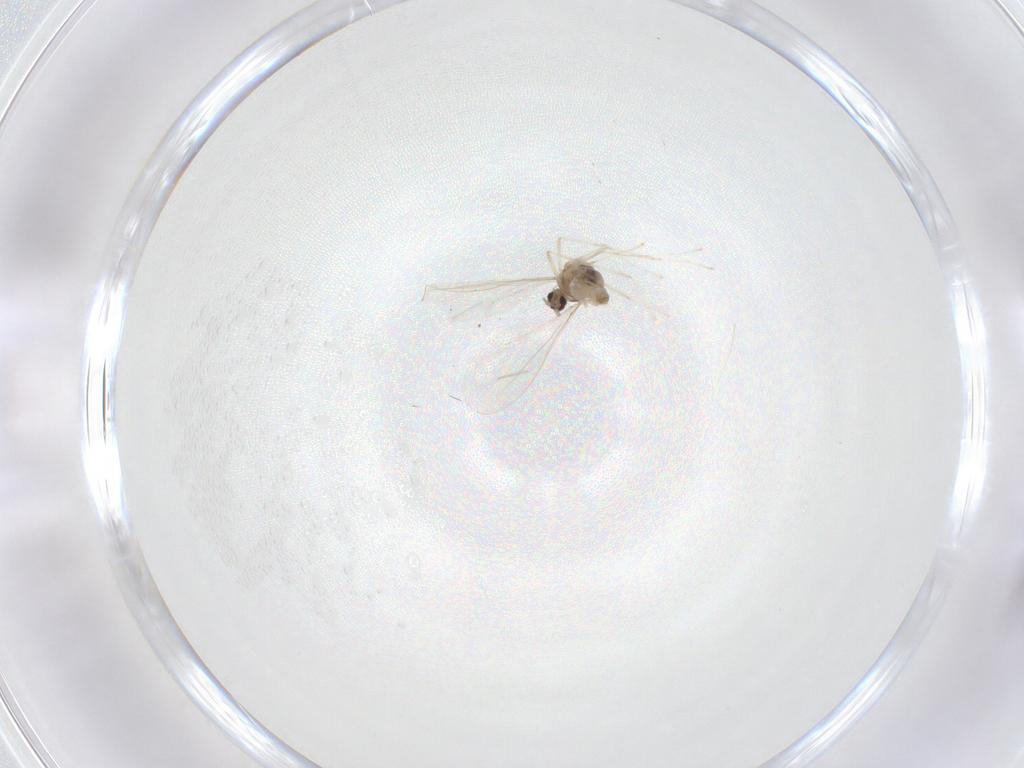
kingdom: Animalia
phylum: Arthropoda
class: Insecta
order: Diptera
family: Cecidomyiidae
